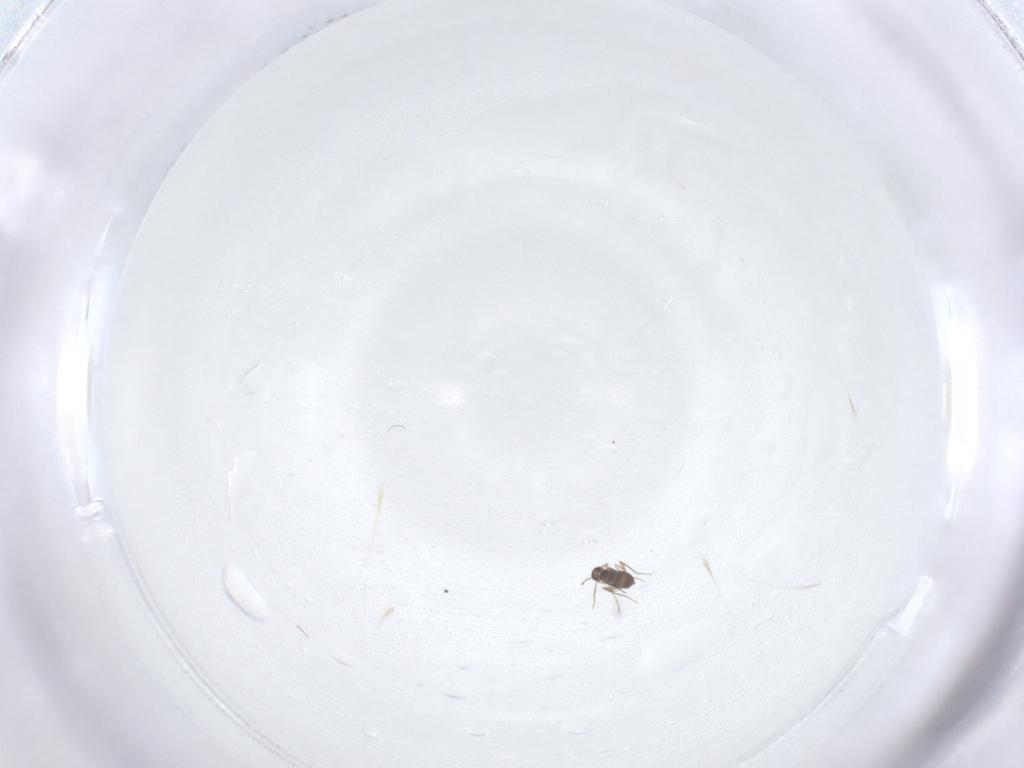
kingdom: Animalia
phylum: Arthropoda
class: Insecta
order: Hymenoptera
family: Mymaridae
